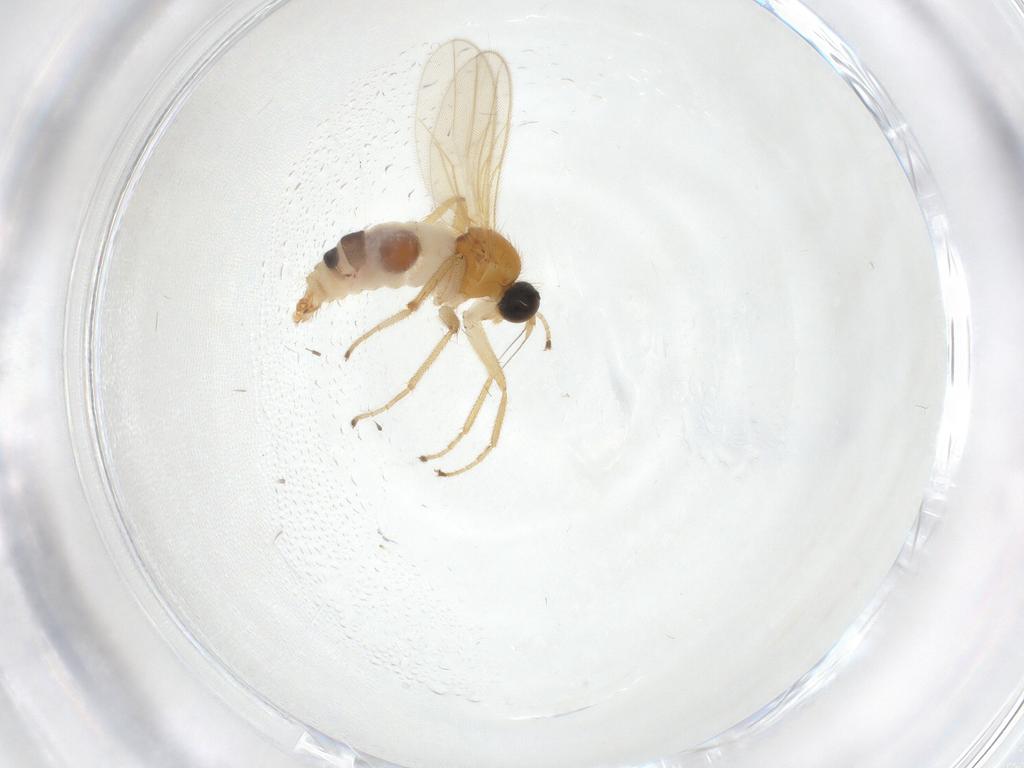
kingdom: Animalia
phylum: Arthropoda
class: Insecta
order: Diptera
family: Hybotidae
